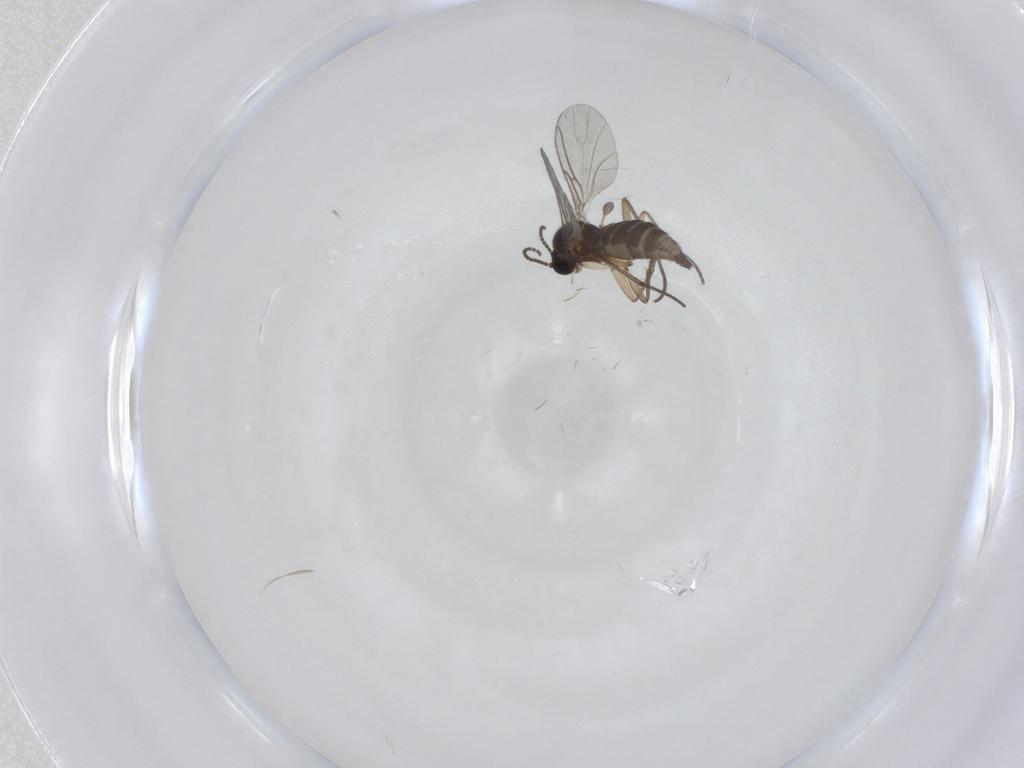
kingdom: Animalia
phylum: Arthropoda
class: Insecta
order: Diptera
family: Sciaridae
